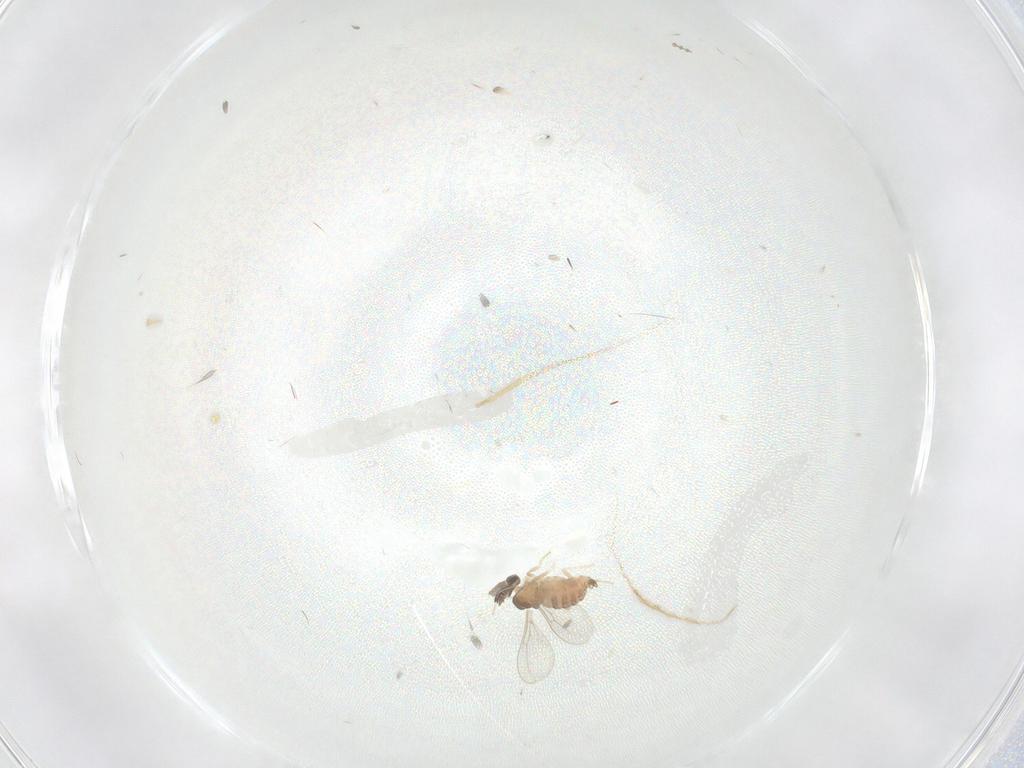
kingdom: Animalia
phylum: Arthropoda
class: Insecta
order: Diptera
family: Cecidomyiidae
